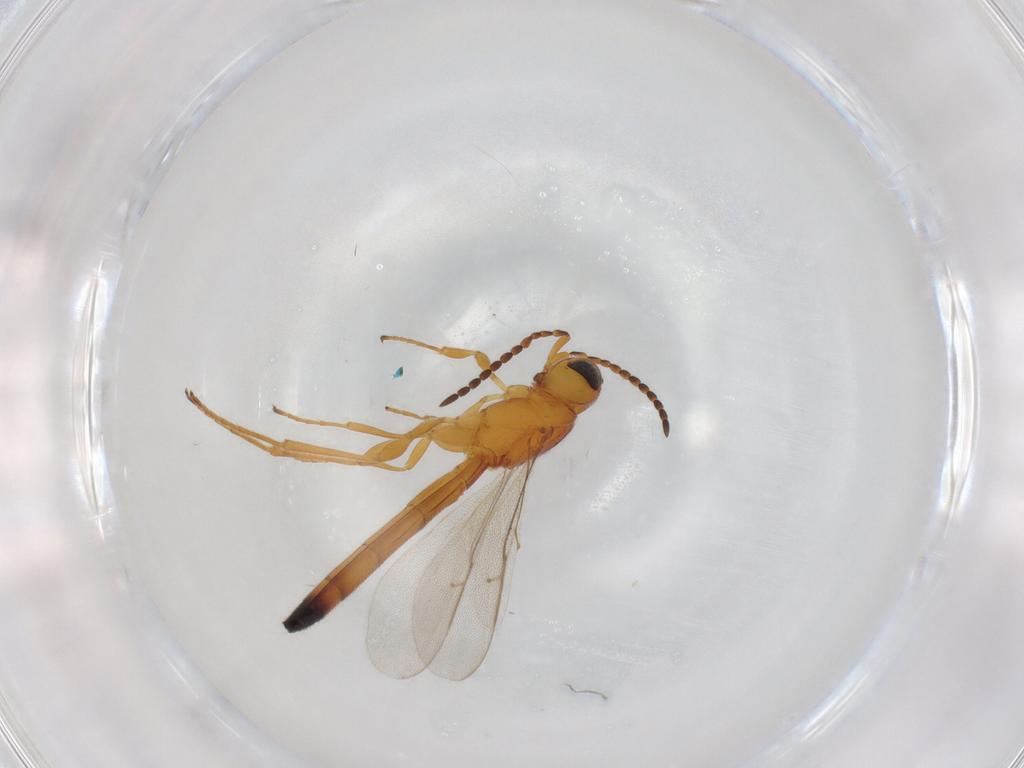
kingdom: Animalia
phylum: Arthropoda
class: Insecta
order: Hymenoptera
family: Scelionidae
